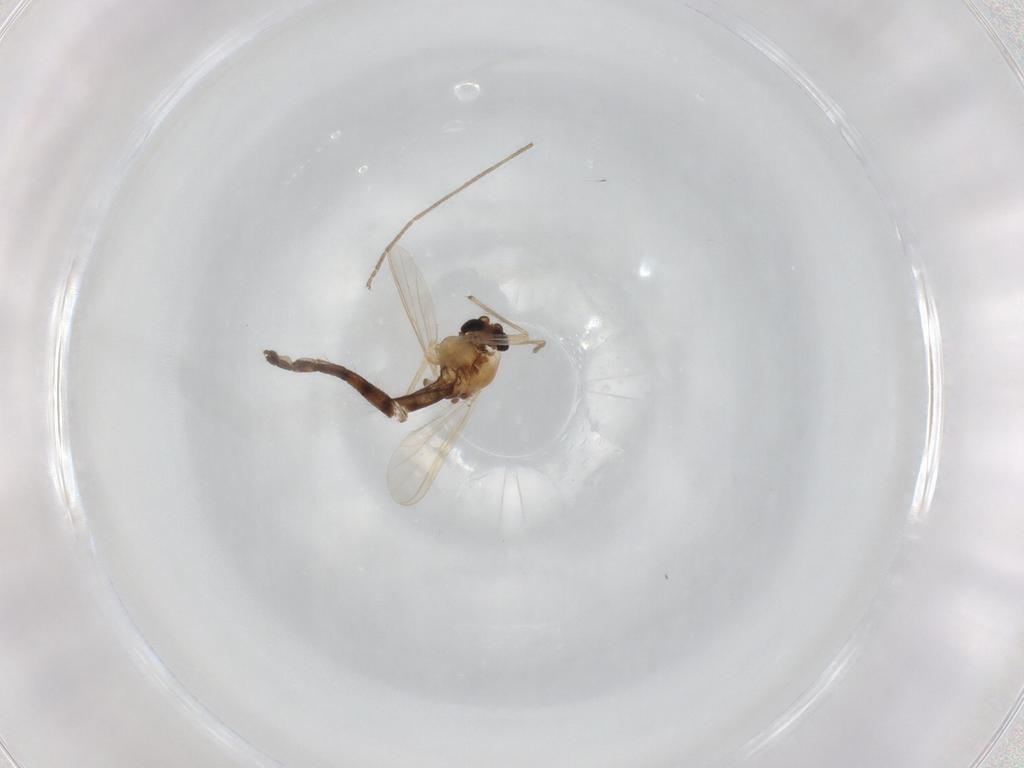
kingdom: Animalia
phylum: Arthropoda
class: Insecta
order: Diptera
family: Chironomidae
